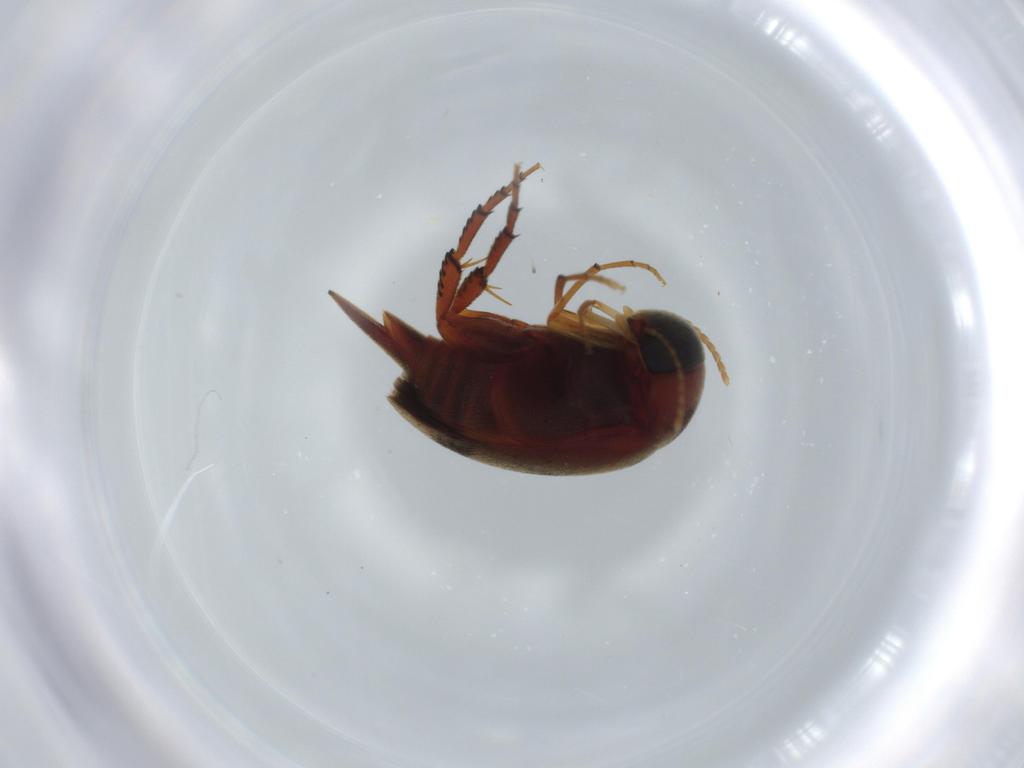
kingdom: Animalia
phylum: Arthropoda
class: Insecta
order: Coleoptera
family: Mordellidae
